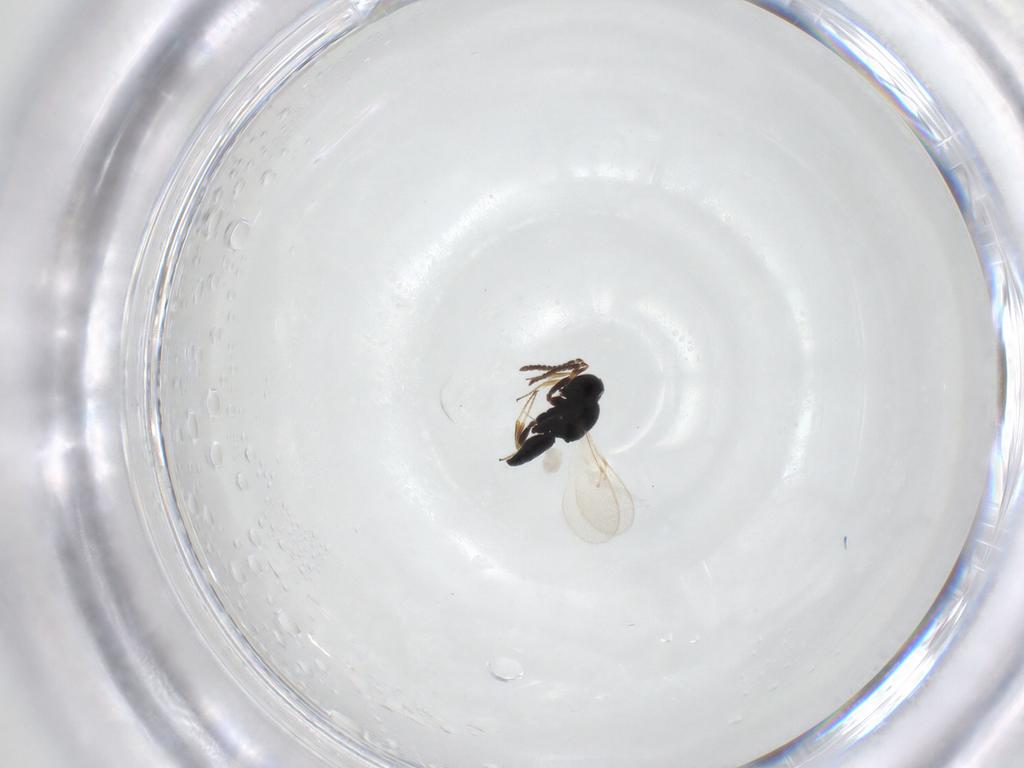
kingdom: Animalia
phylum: Arthropoda
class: Insecta
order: Hymenoptera
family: Scelionidae
